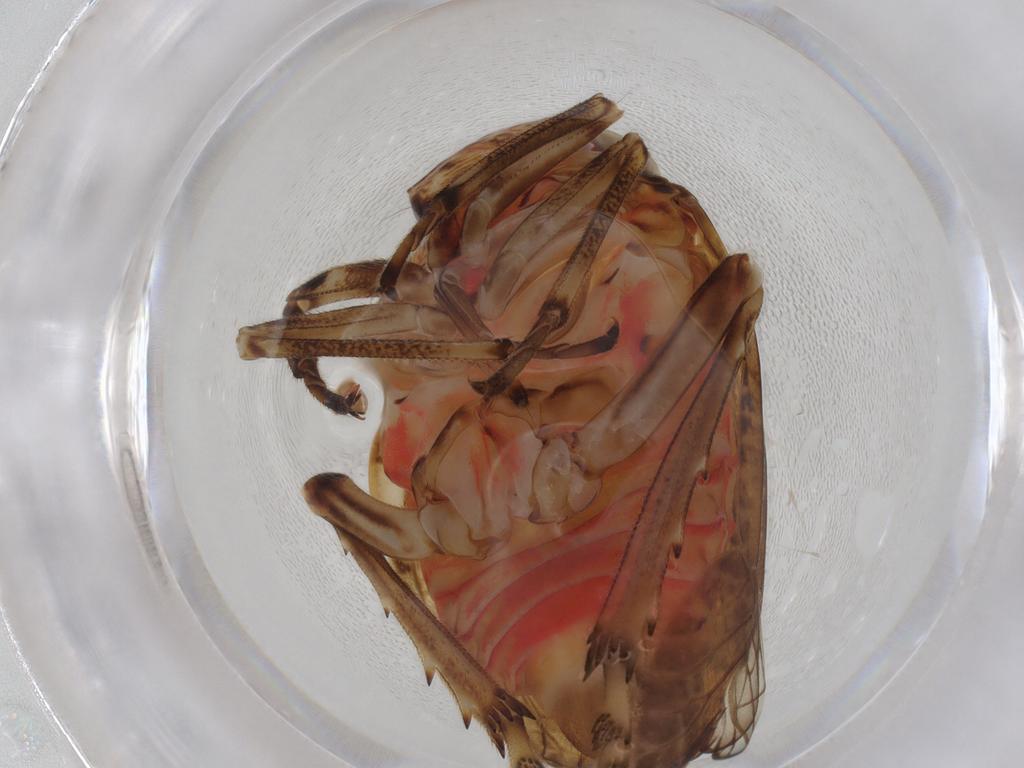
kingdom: Animalia
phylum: Arthropoda
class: Insecta
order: Hemiptera
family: Issidae
